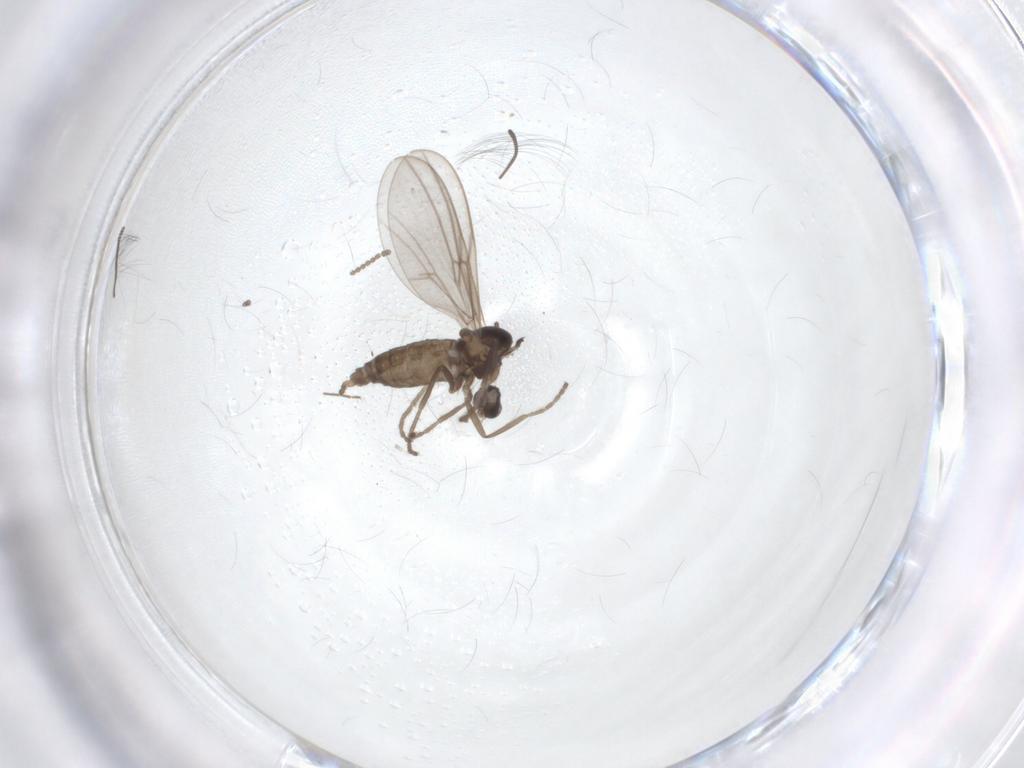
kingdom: Animalia
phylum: Arthropoda
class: Insecta
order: Diptera
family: Cecidomyiidae
